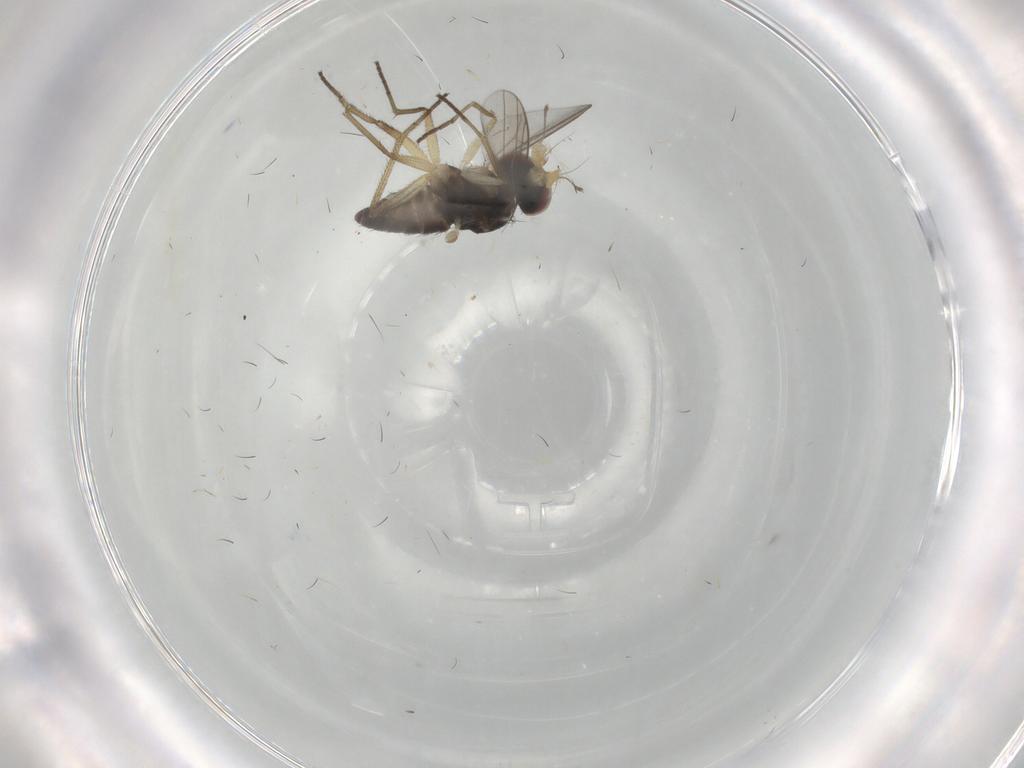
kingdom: Animalia
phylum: Arthropoda
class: Insecta
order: Diptera
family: Dolichopodidae
